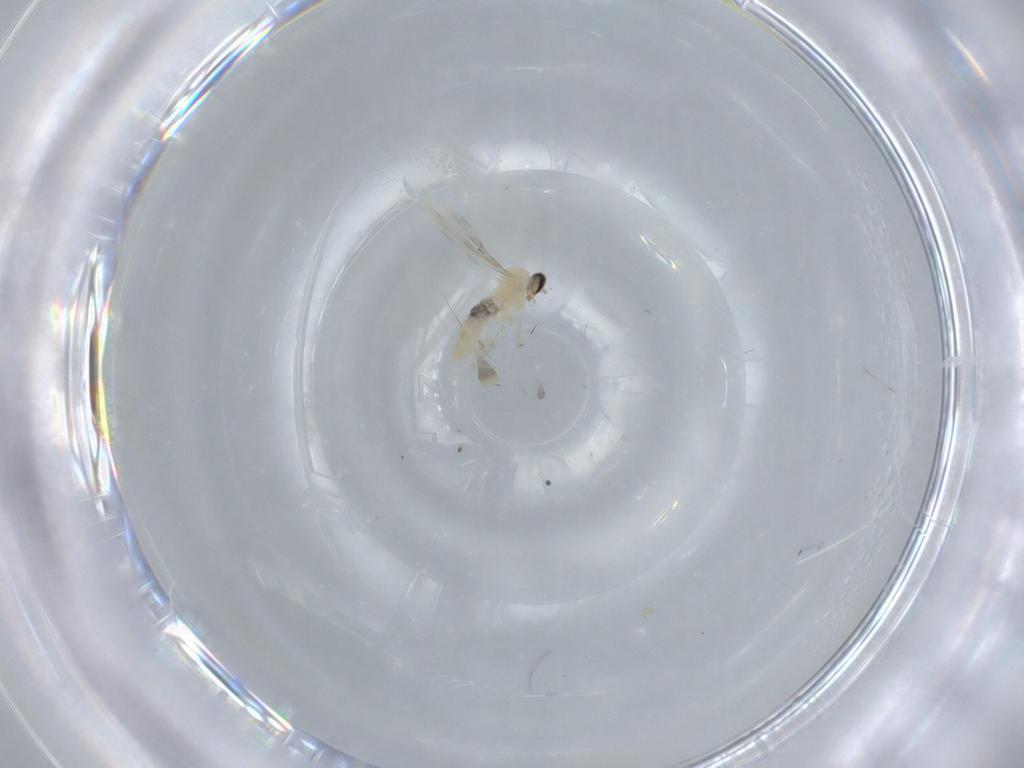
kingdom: Animalia
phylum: Arthropoda
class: Insecta
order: Diptera
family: Cecidomyiidae
